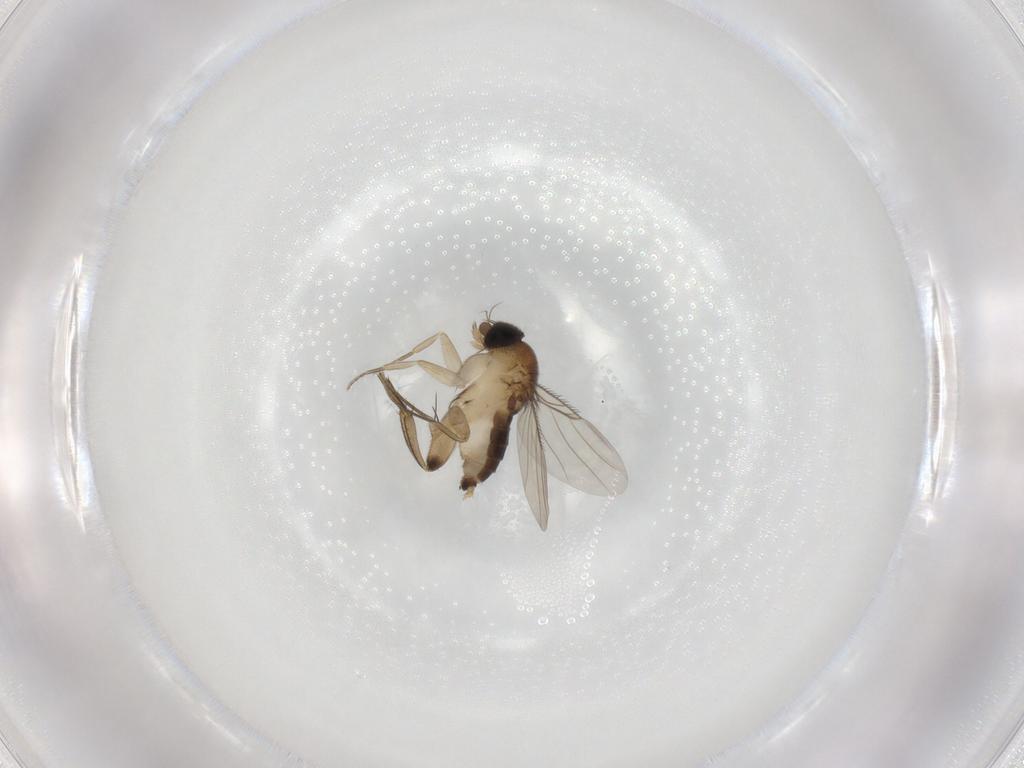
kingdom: Animalia
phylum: Arthropoda
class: Insecta
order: Diptera
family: Phoridae
